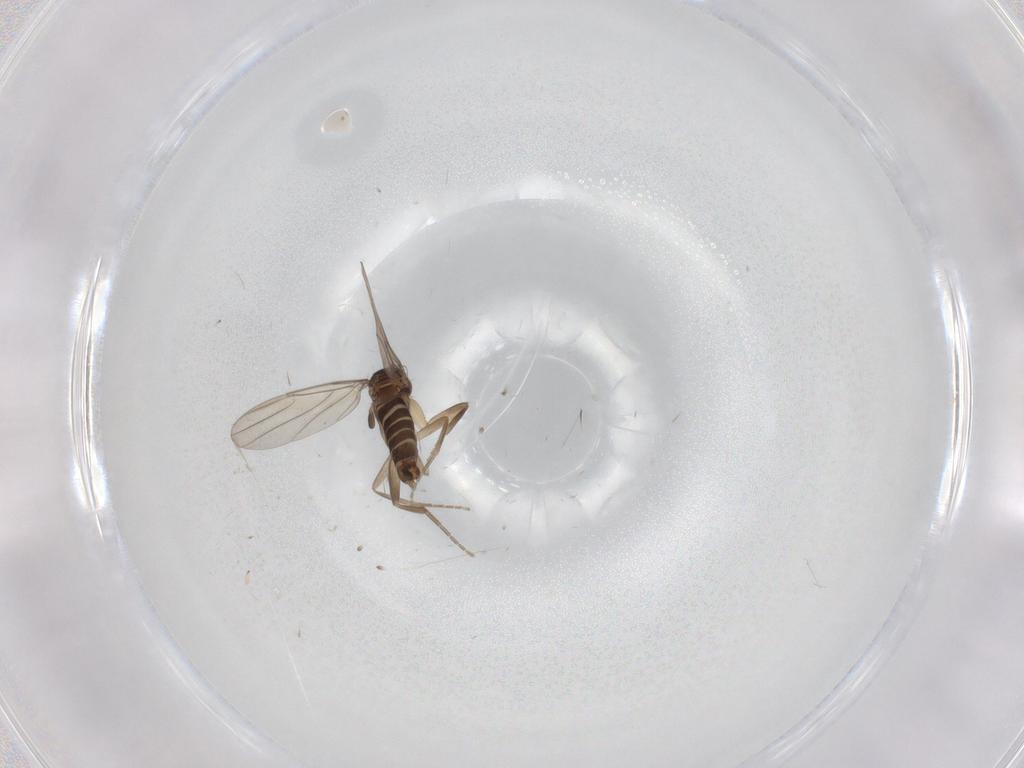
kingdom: Animalia
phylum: Arthropoda
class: Insecta
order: Diptera
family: Phoridae
